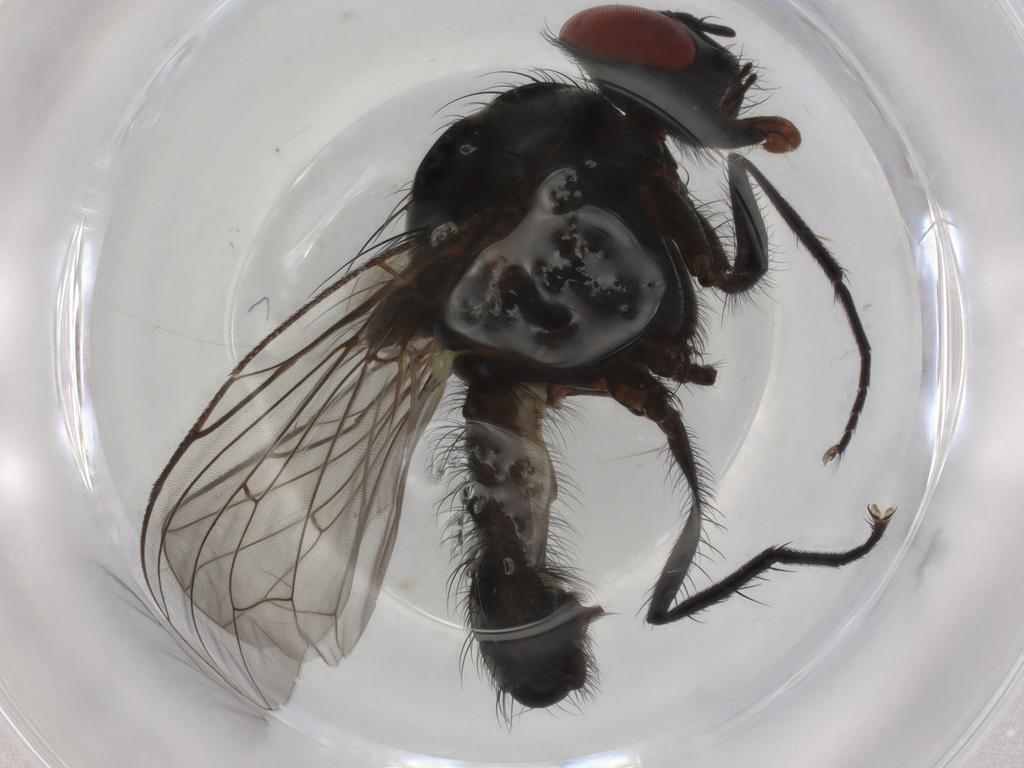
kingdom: Animalia
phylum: Arthropoda
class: Insecta
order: Diptera
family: Anthomyiidae
